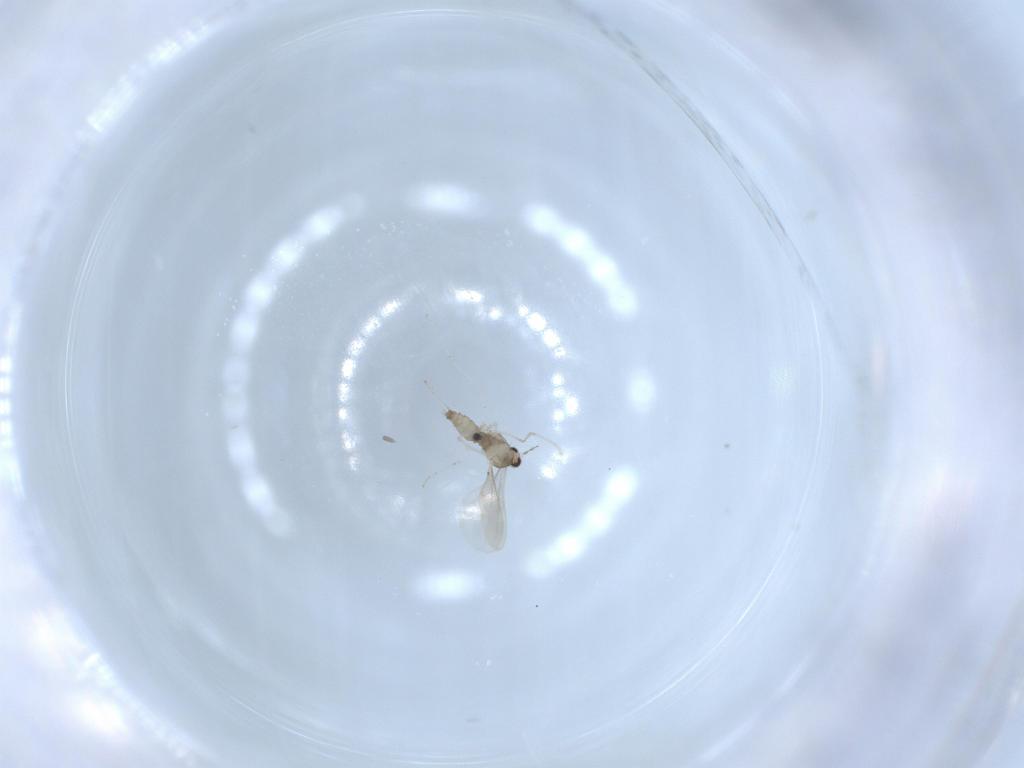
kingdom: Animalia
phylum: Arthropoda
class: Insecta
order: Diptera
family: Cecidomyiidae
